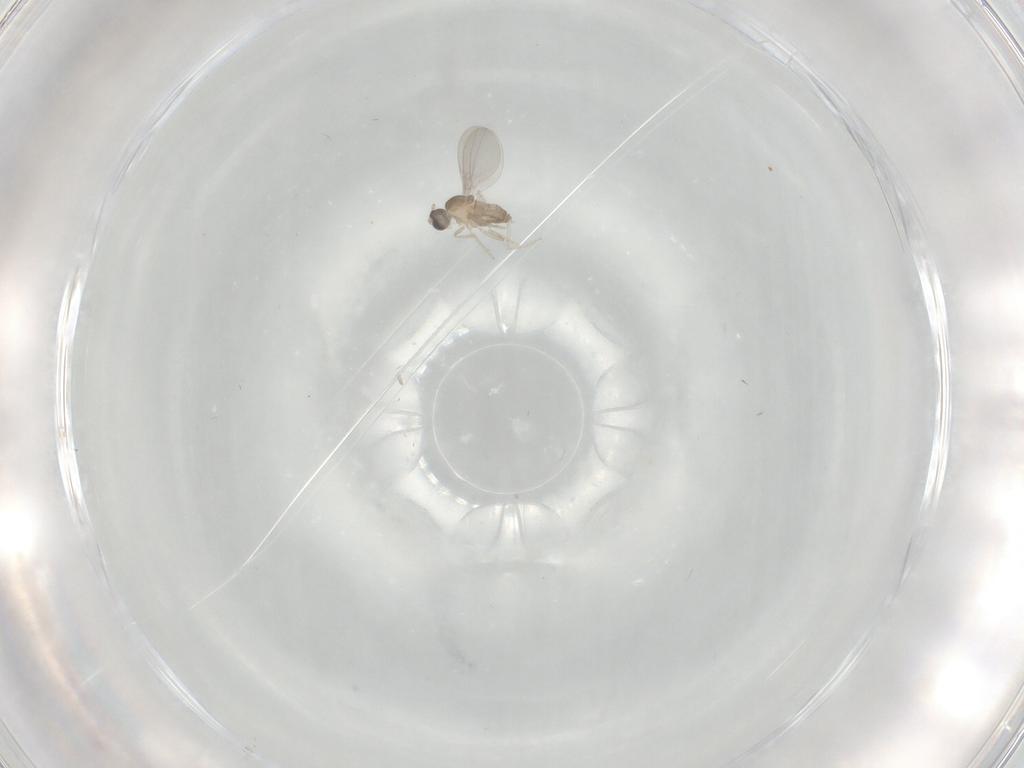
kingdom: Animalia
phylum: Arthropoda
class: Insecta
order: Diptera
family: Cecidomyiidae
